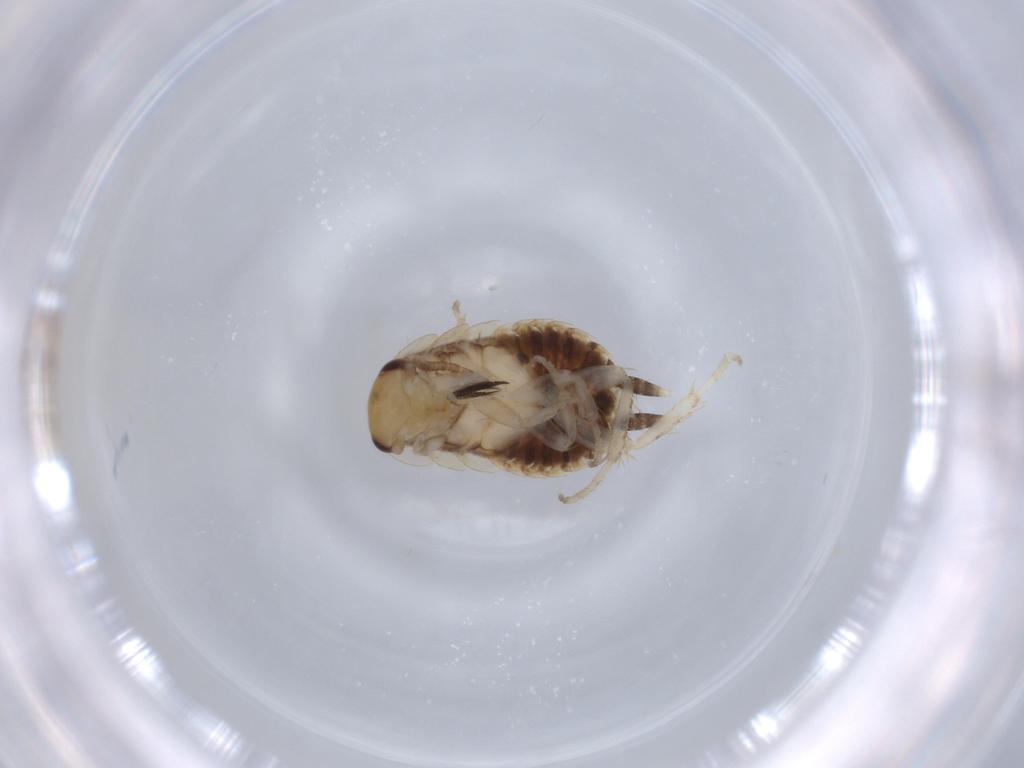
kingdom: Animalia
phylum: Arthropoda
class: Insecta
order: Blattodea
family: Ectobiidae
